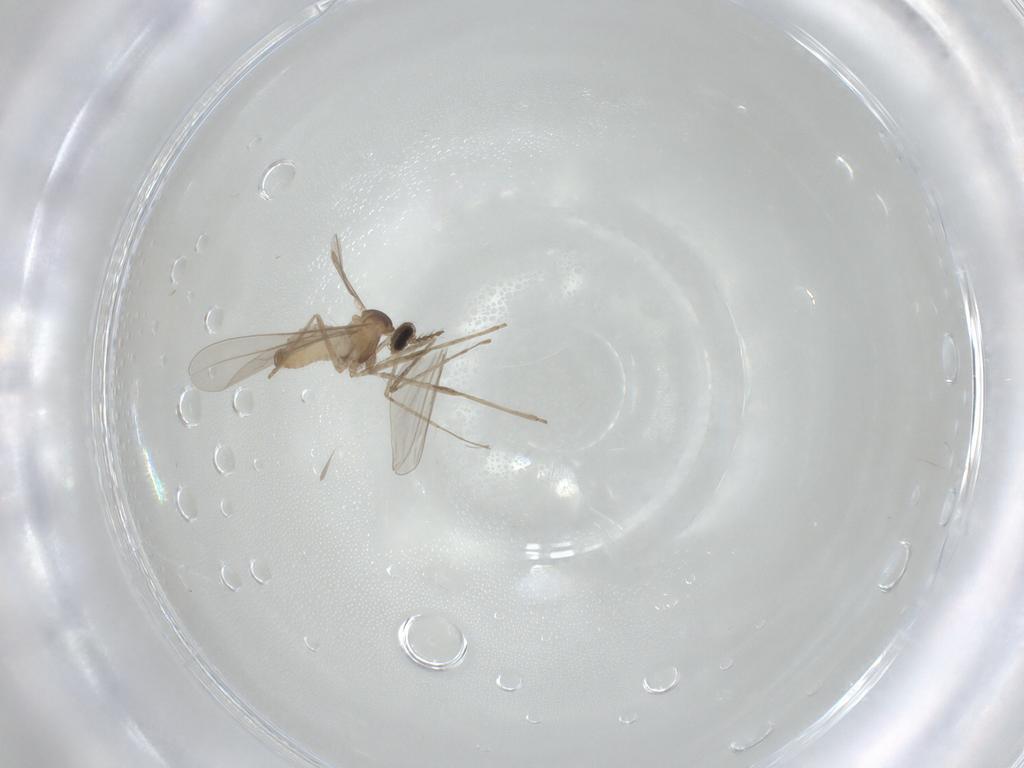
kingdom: Animalia
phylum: Arthropoda
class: Insecta
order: Diptera
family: Cecidomyiidae
